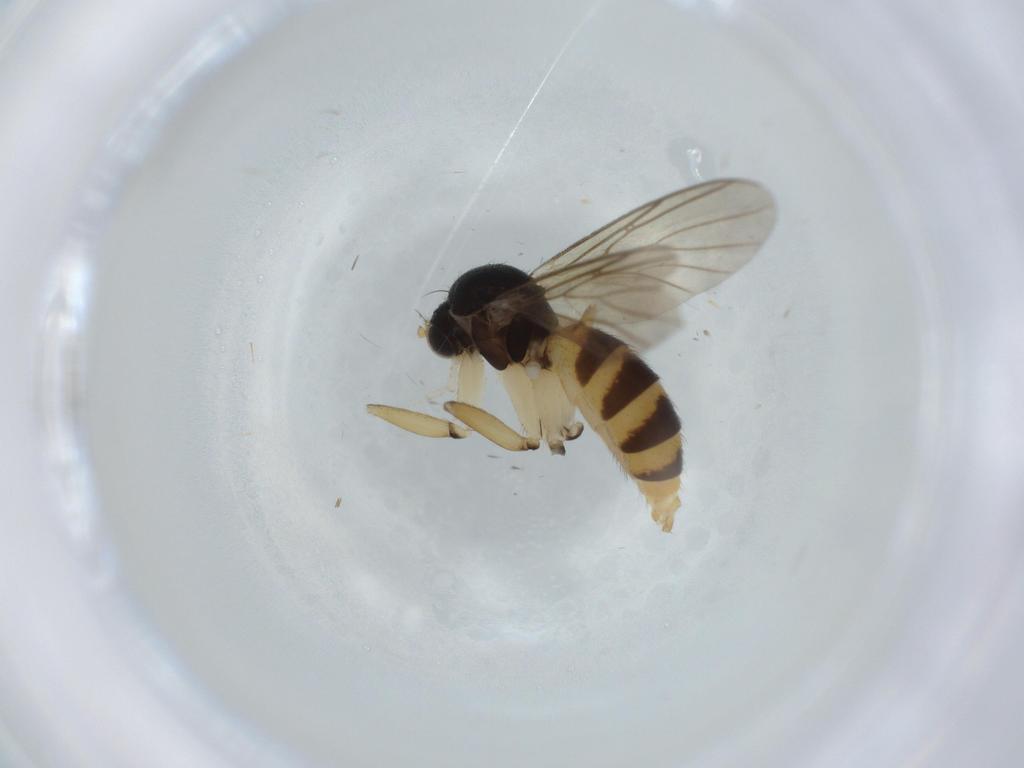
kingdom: Animalia
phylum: Arthropoda
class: Insecta
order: Diptera
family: Mycetophilidae
